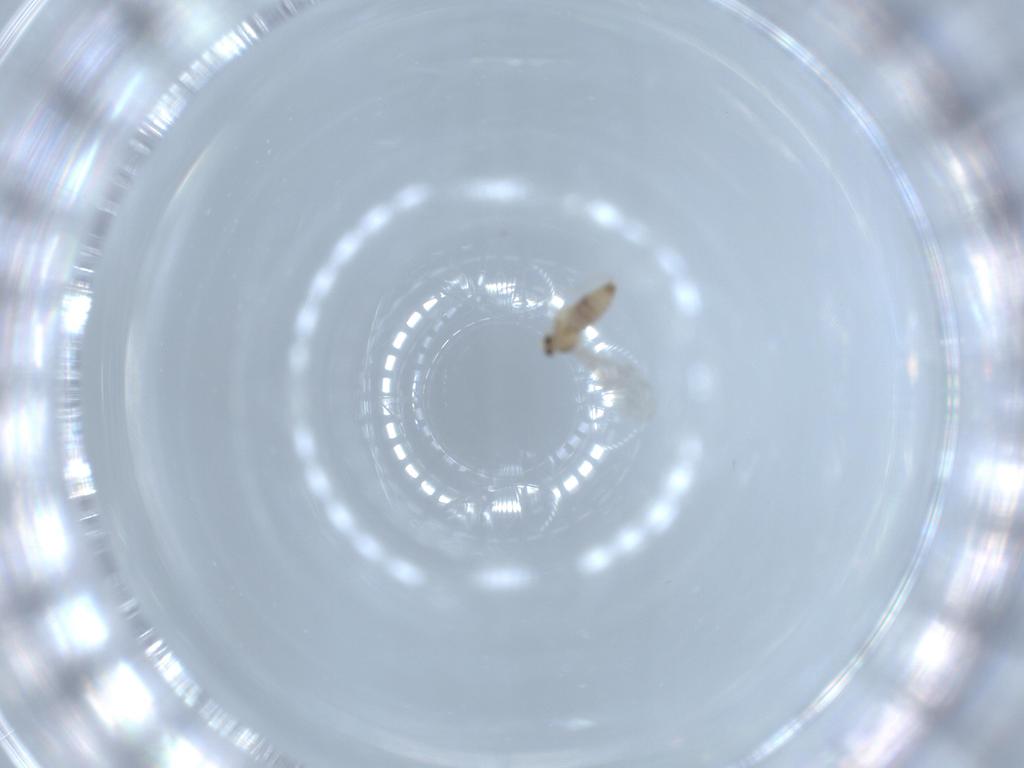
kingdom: Animalia
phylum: Arthropoda
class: Insecta
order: Diptera
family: Cecidomyiidae
